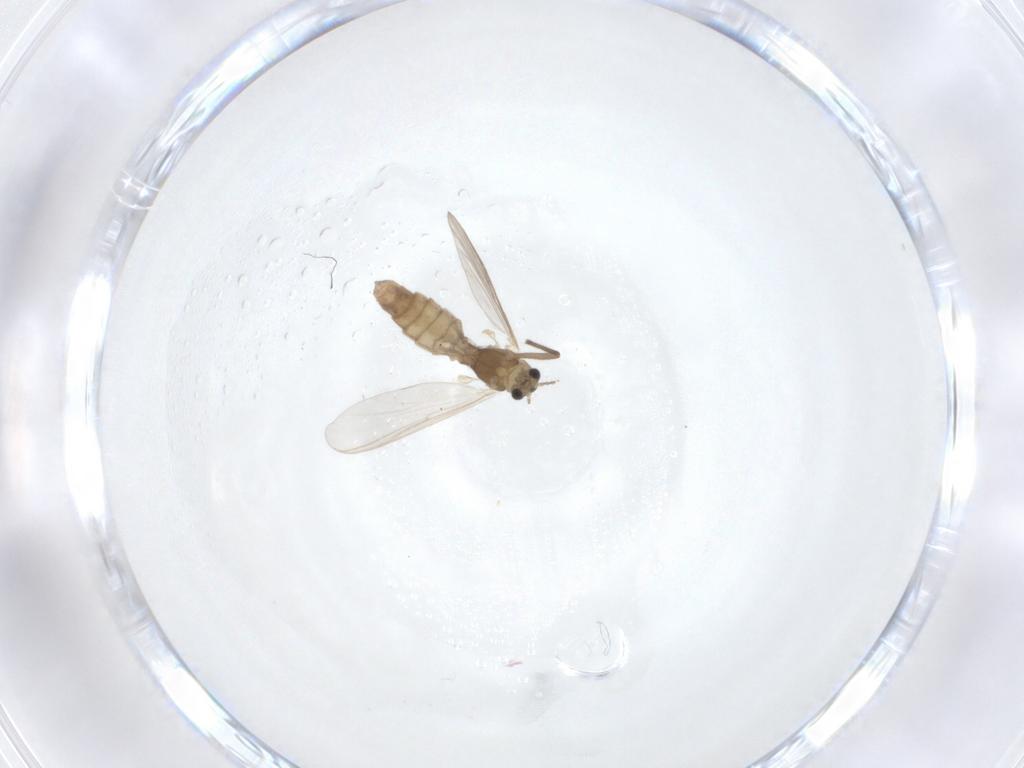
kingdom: Animalia
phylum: Arthropoda
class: Insecta
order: Diptera
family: Chironomidae
